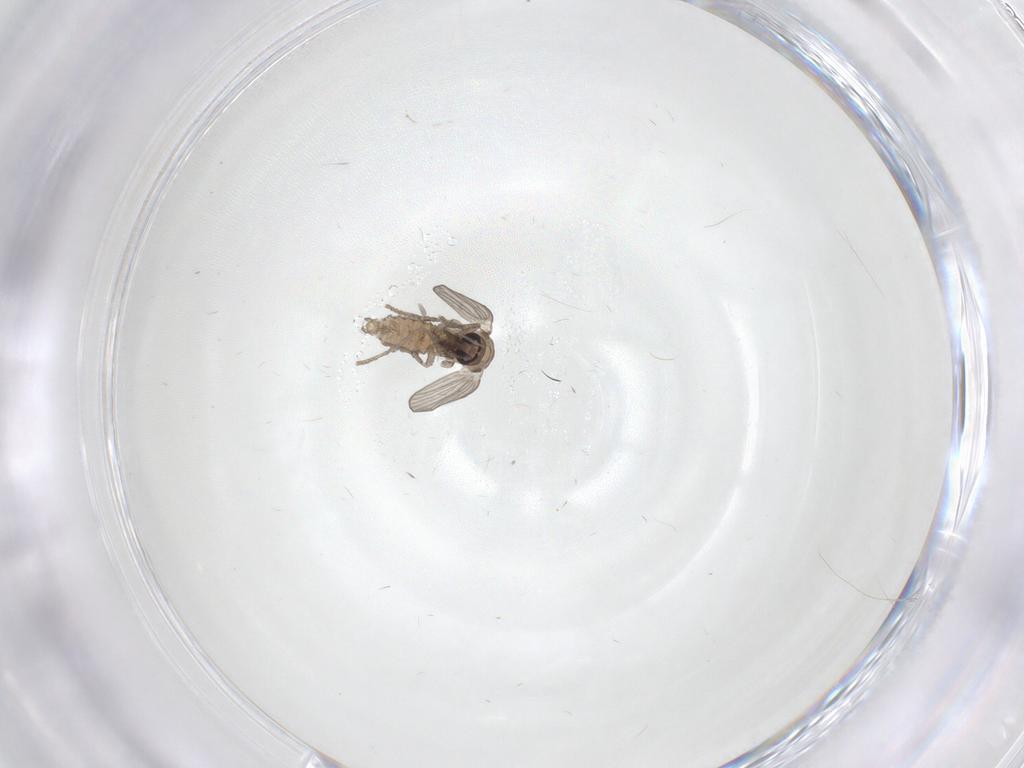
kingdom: Animalia
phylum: Arthropoda
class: Insecta
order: Diptera
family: Psychodidae
